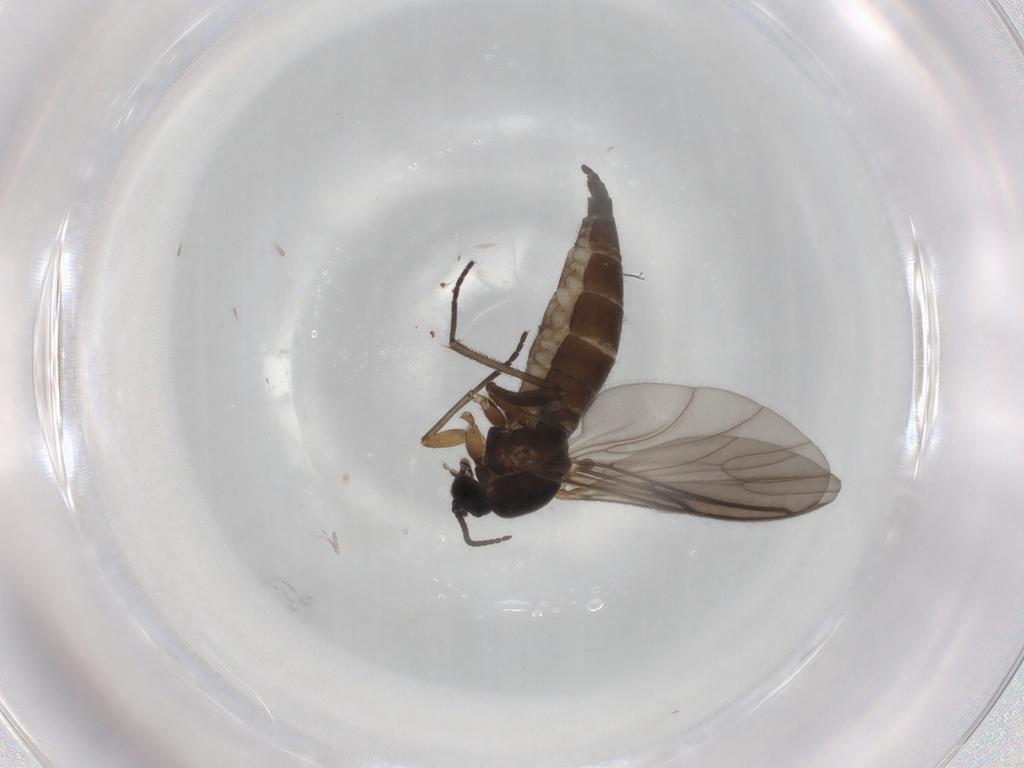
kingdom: Animalia
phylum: Arthropoda
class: Insecta
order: Diptera
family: Sciaridae
